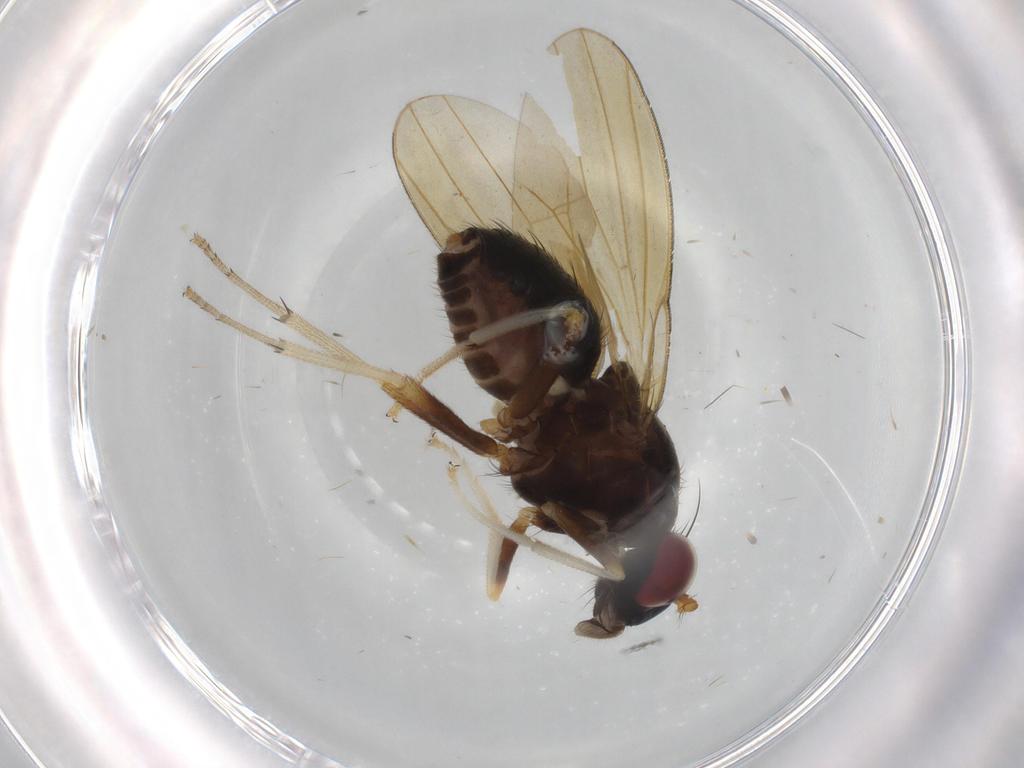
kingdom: Animalia
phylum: Arthropoda
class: Insecta
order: Diptera
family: Lauxaniidae
